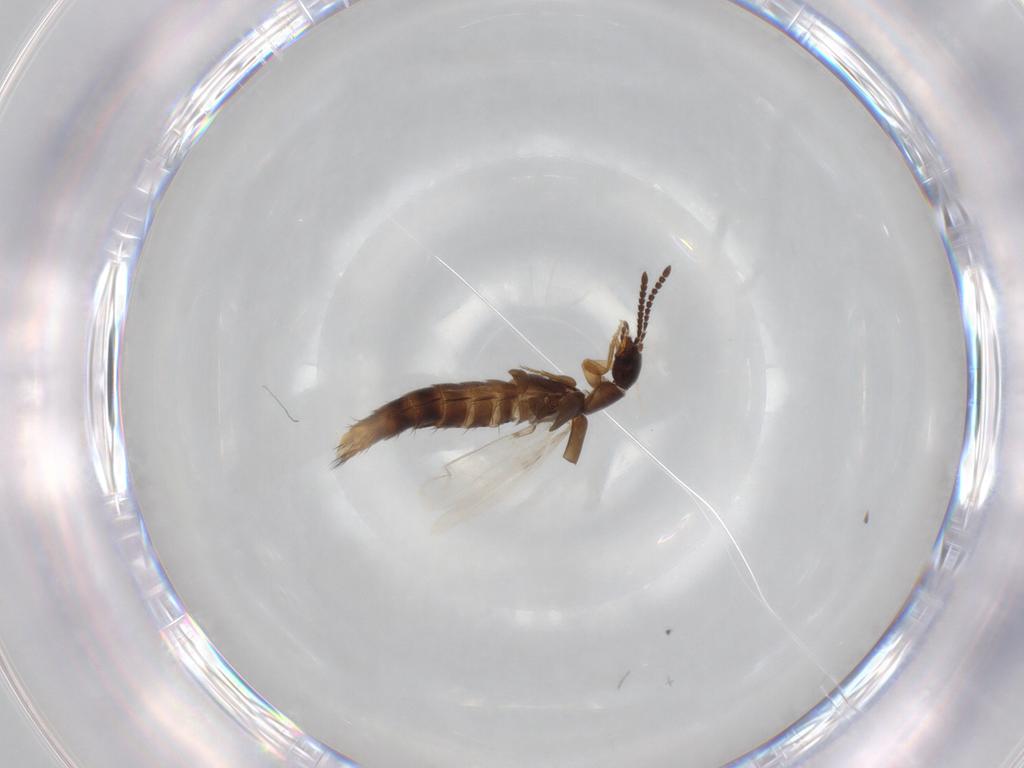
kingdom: Animalia
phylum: Arthropoda
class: Insecta
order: Coleoptera
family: Staphylinidae
